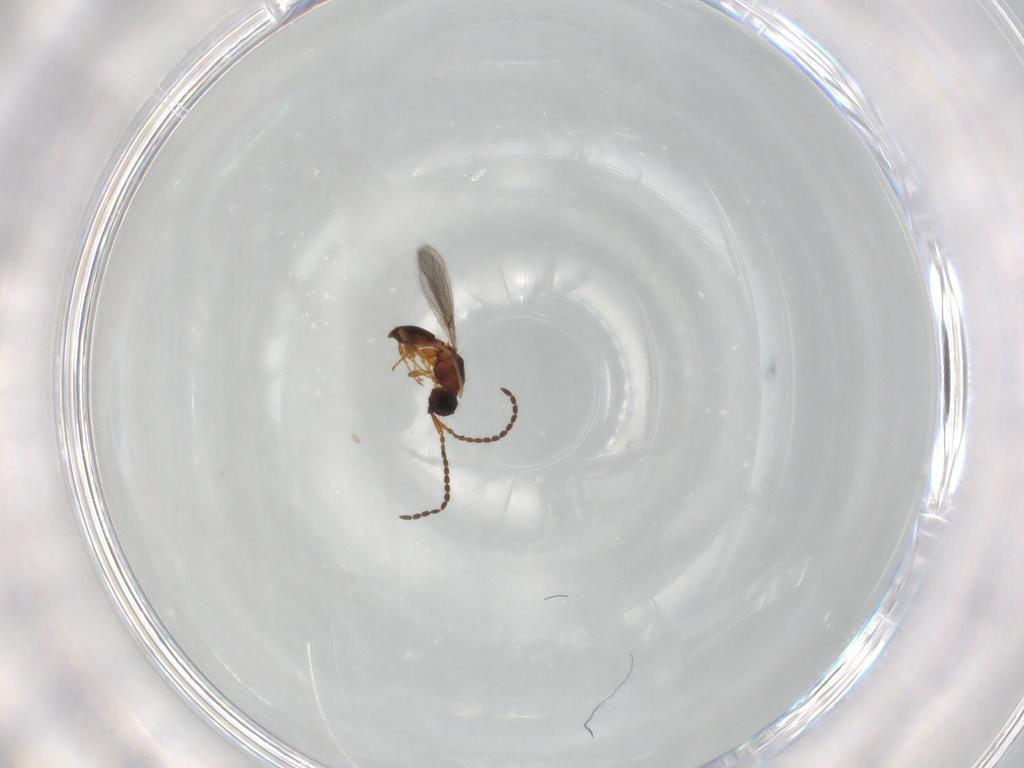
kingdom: Animalia
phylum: Arthropoda
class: Insecta
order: Hymenoptera
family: Diapriidae
